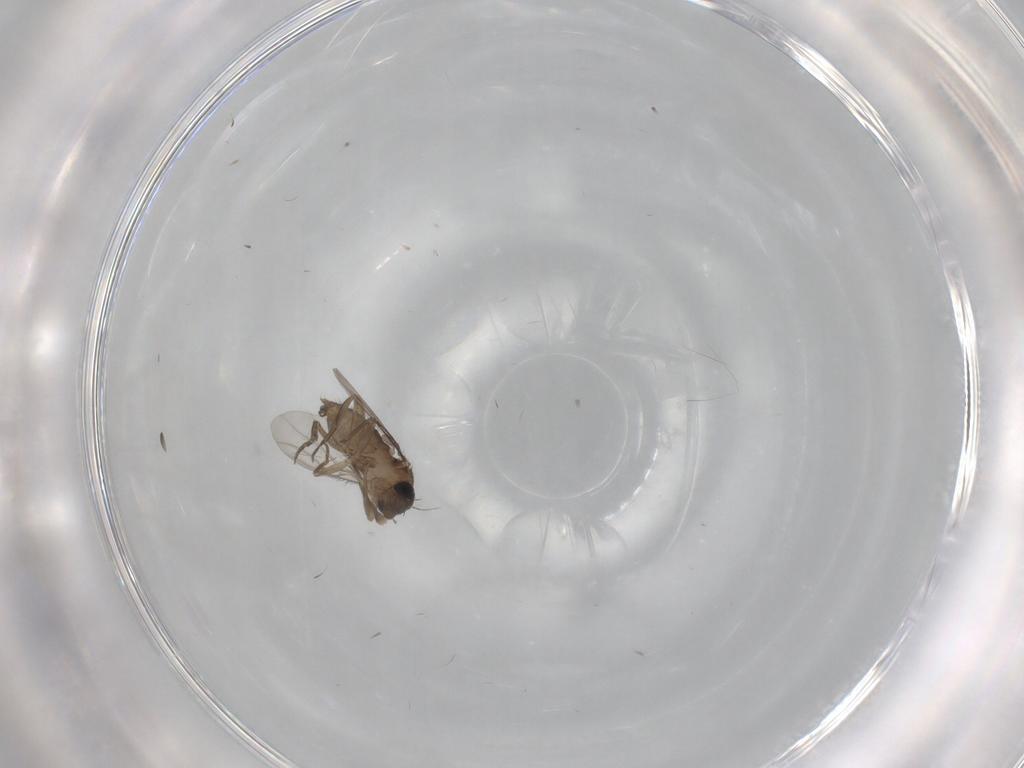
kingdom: Animalia
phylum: Arthropoda
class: Insecta
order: Diptera
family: Phoridae
